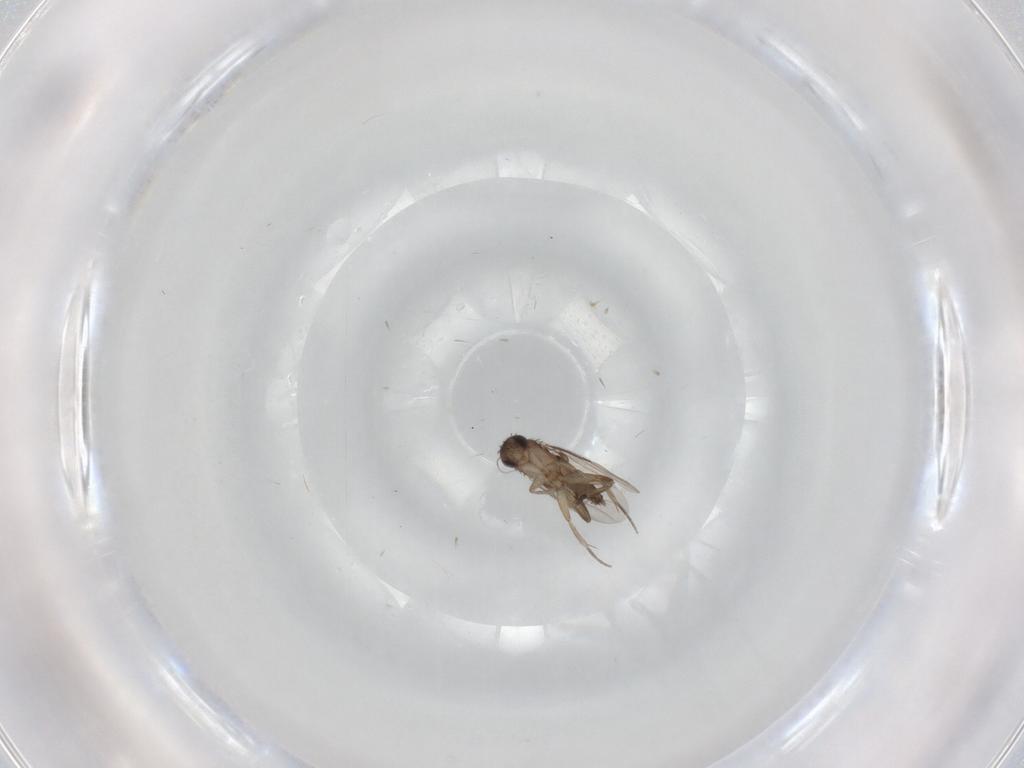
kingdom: Animalia
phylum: Arthropoda
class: Insecta
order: Diptera
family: Phoridae
